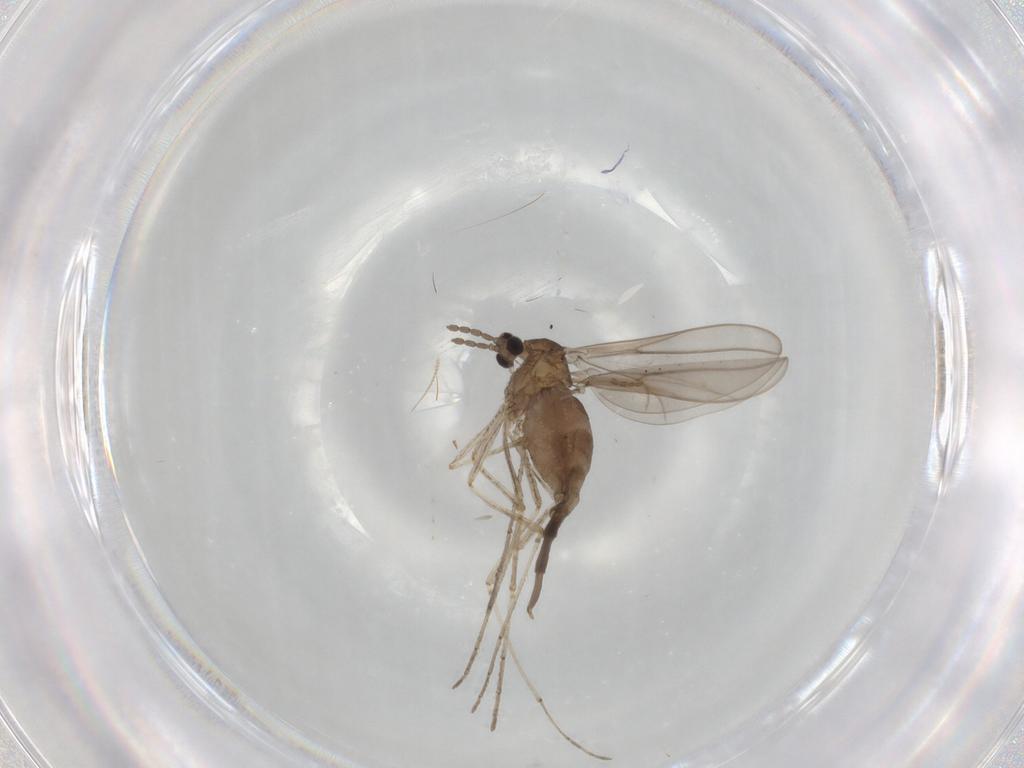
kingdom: Animalia
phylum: Arthropoda
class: Insecta
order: Diptera
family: Cecidomyiidae
